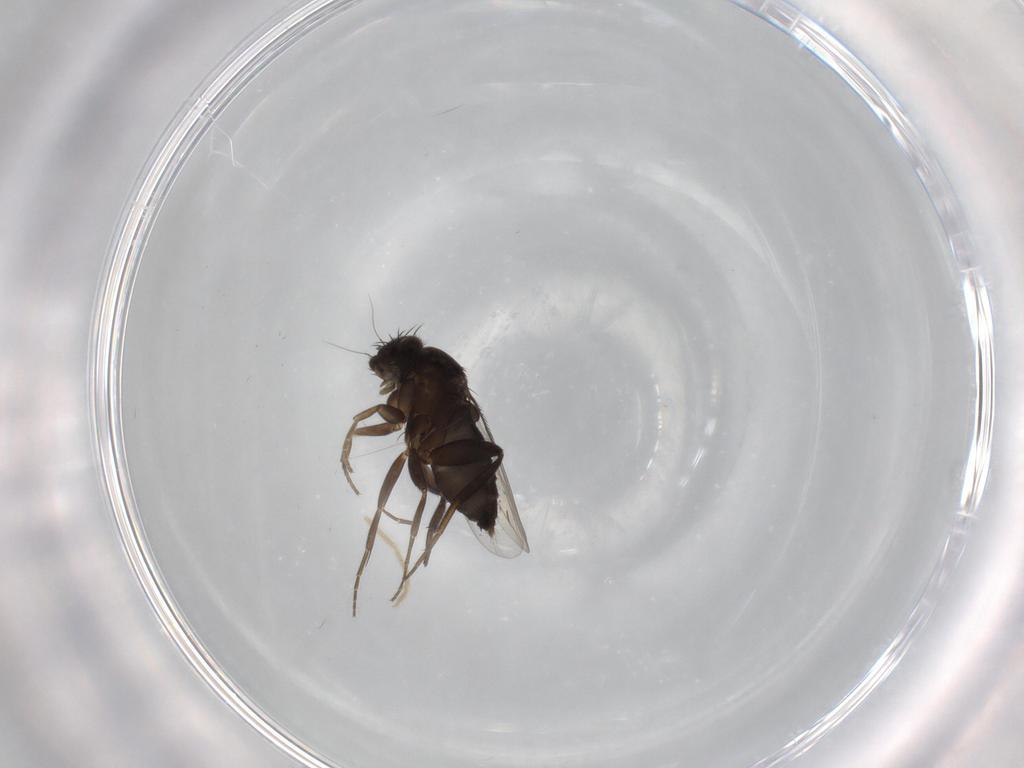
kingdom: Animalia
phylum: Arthropoda
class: Insecta
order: Diptera
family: Phoridae
